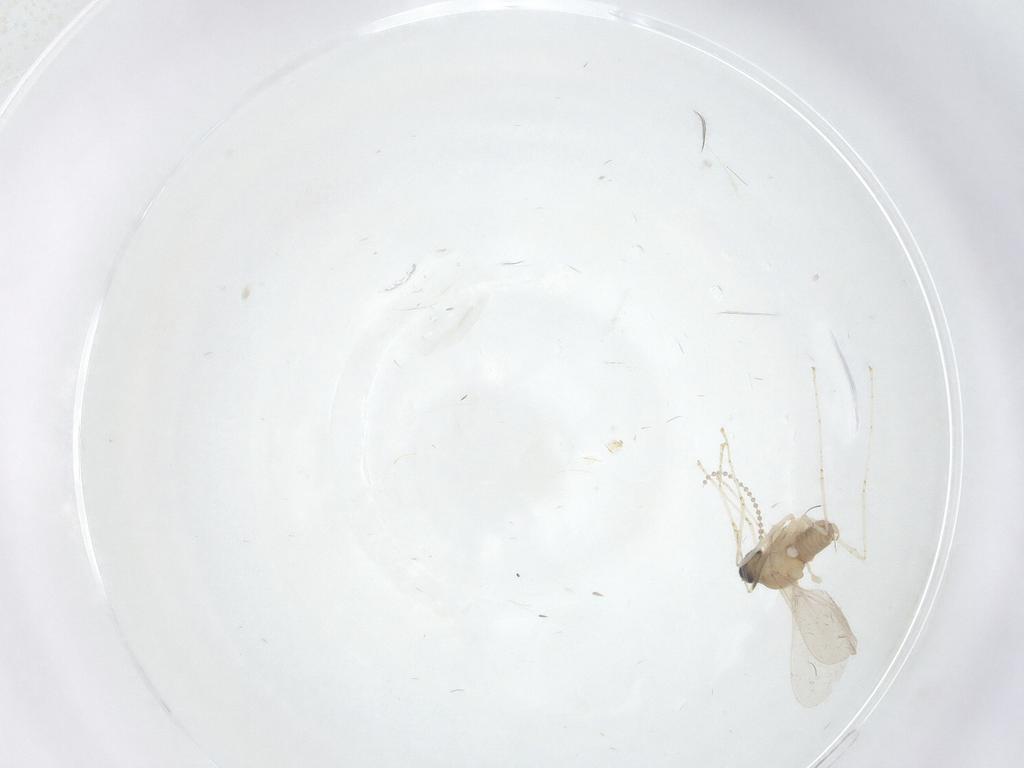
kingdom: Animalia
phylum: Arthropoda
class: Insecta
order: Diptera
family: Cecidomyiidae
